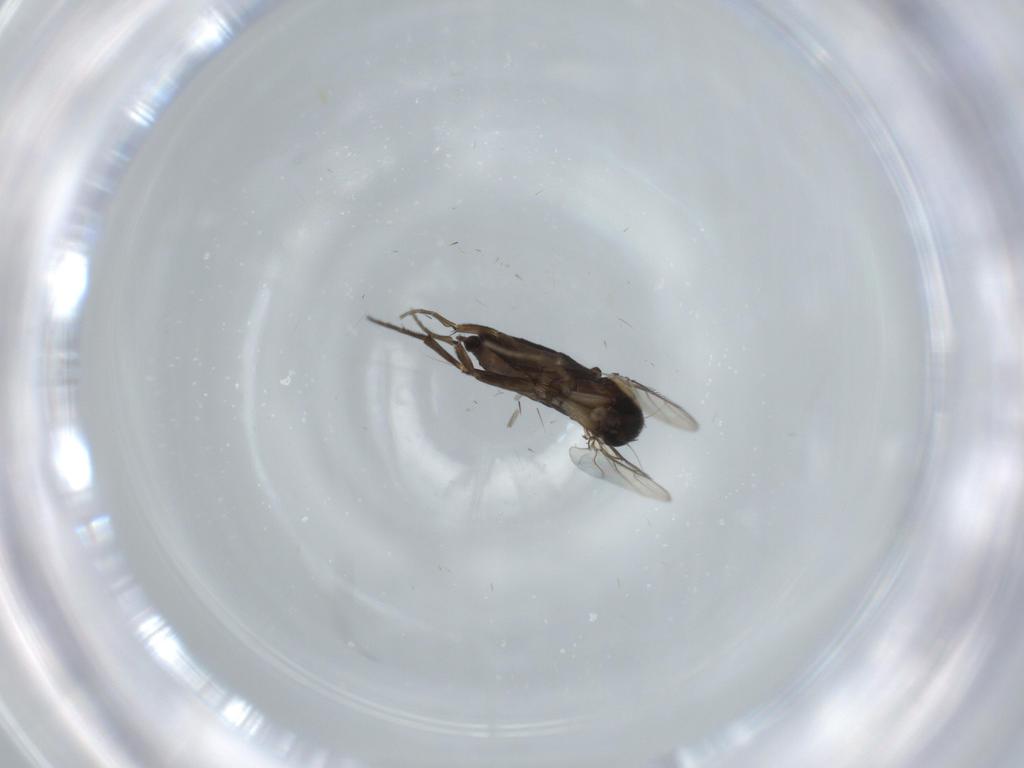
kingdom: Animalia
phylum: Arthropoda
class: Insecta
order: Diptera
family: Phoridae
